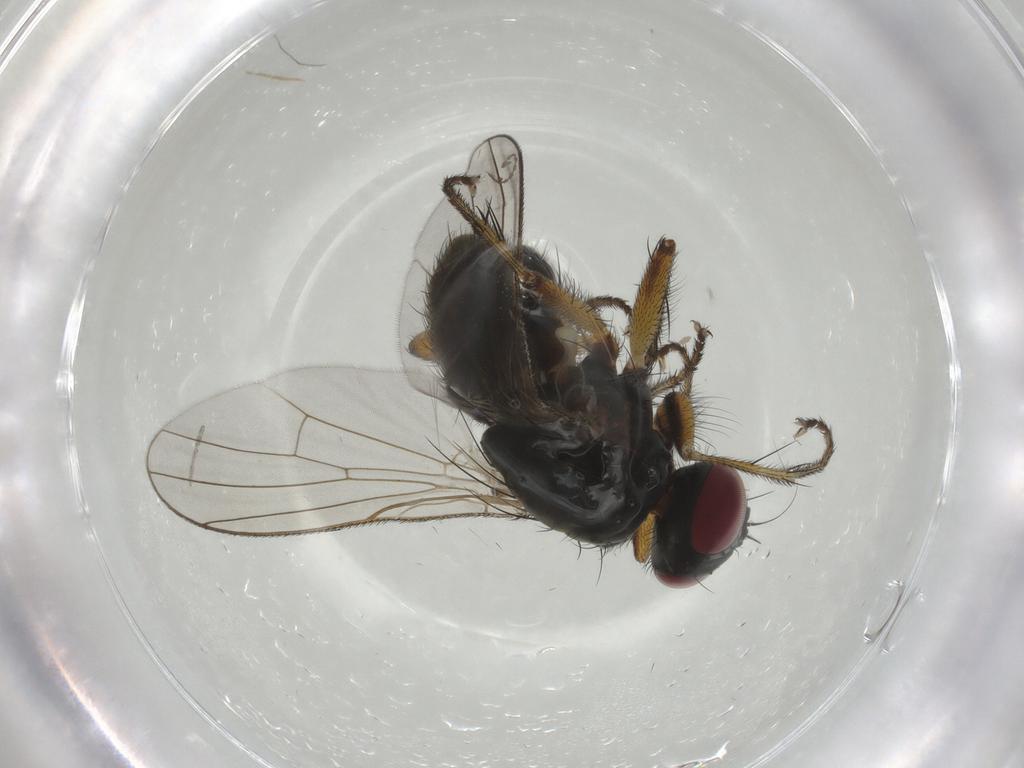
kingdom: Animalia
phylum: Arthropoda
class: Insecta
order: Diptera
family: Muscidae
